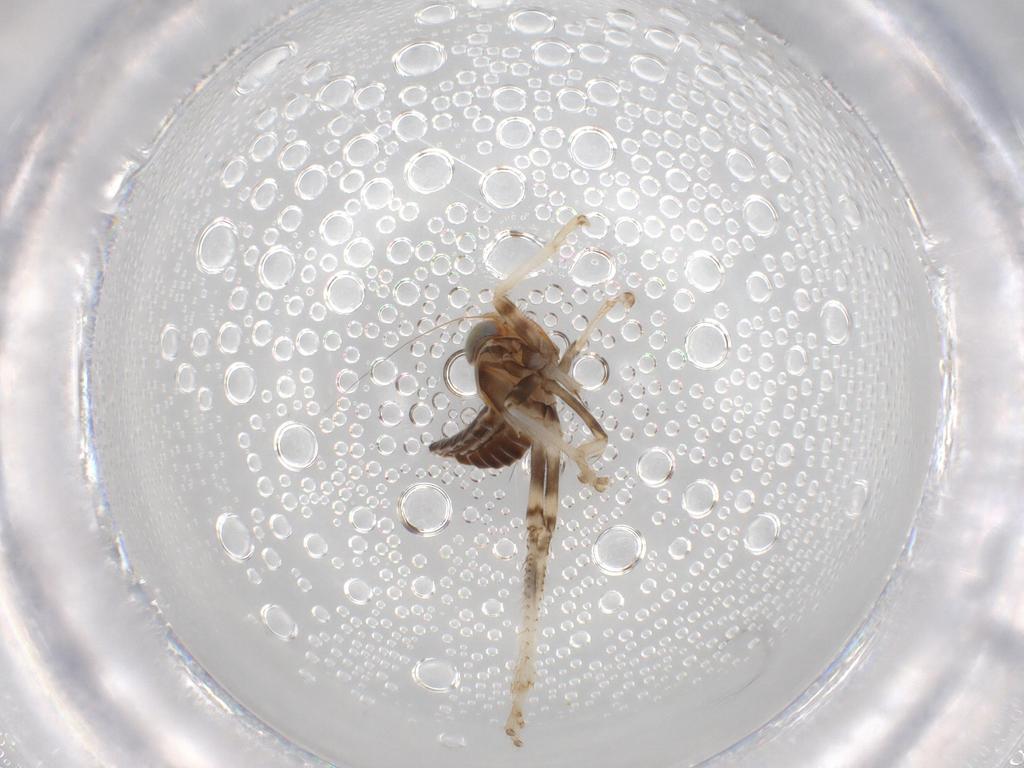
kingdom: Animalia
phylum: Arthropoda
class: Insecta
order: Hemiptera
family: Cicadellidae
